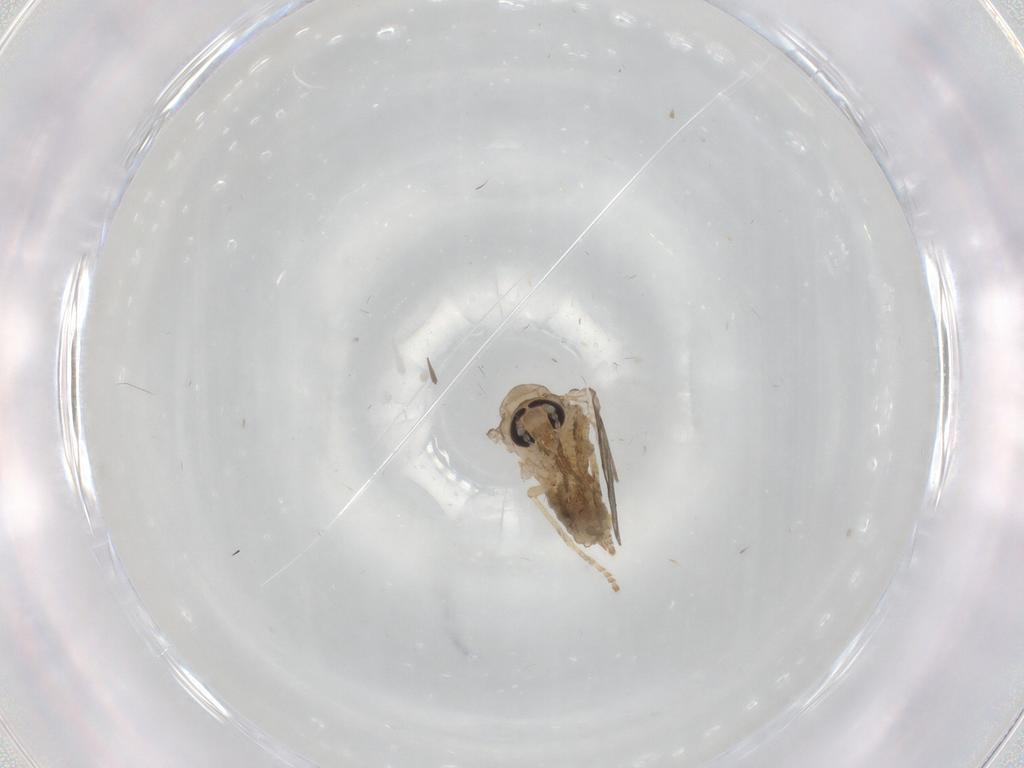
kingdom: Animalia
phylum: Arthropoda
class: Insecta
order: Diptera
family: Psychodidae
